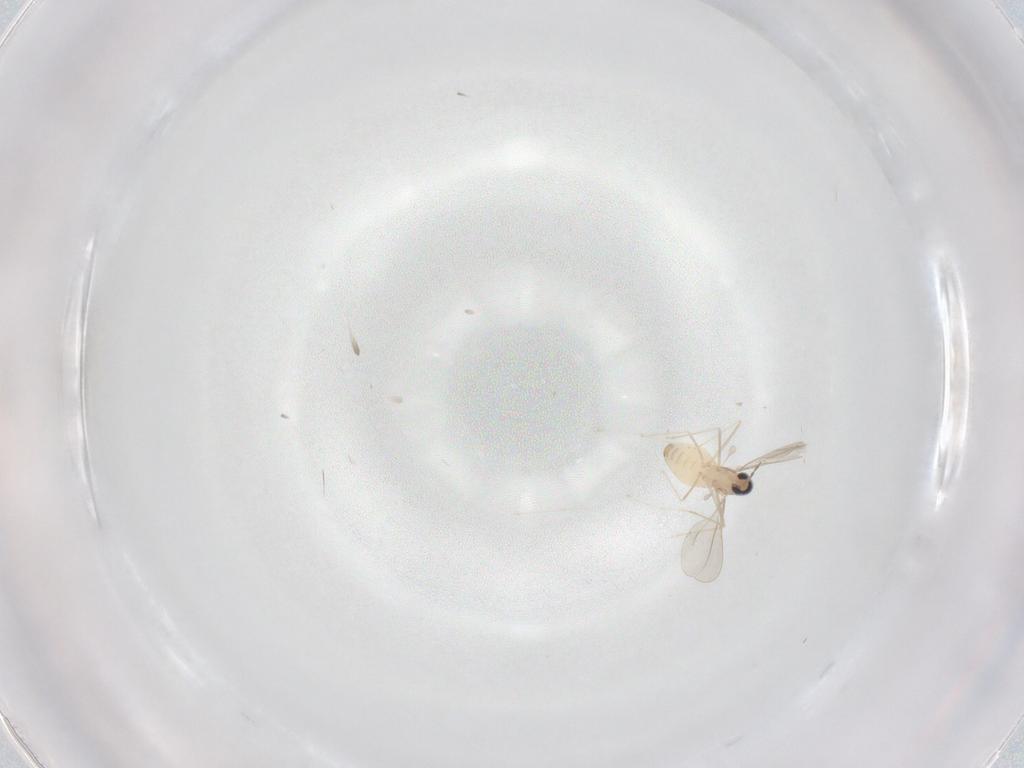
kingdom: Animalia
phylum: Arthropoda
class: Insecta
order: Diptera
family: Cecidomyiidae
